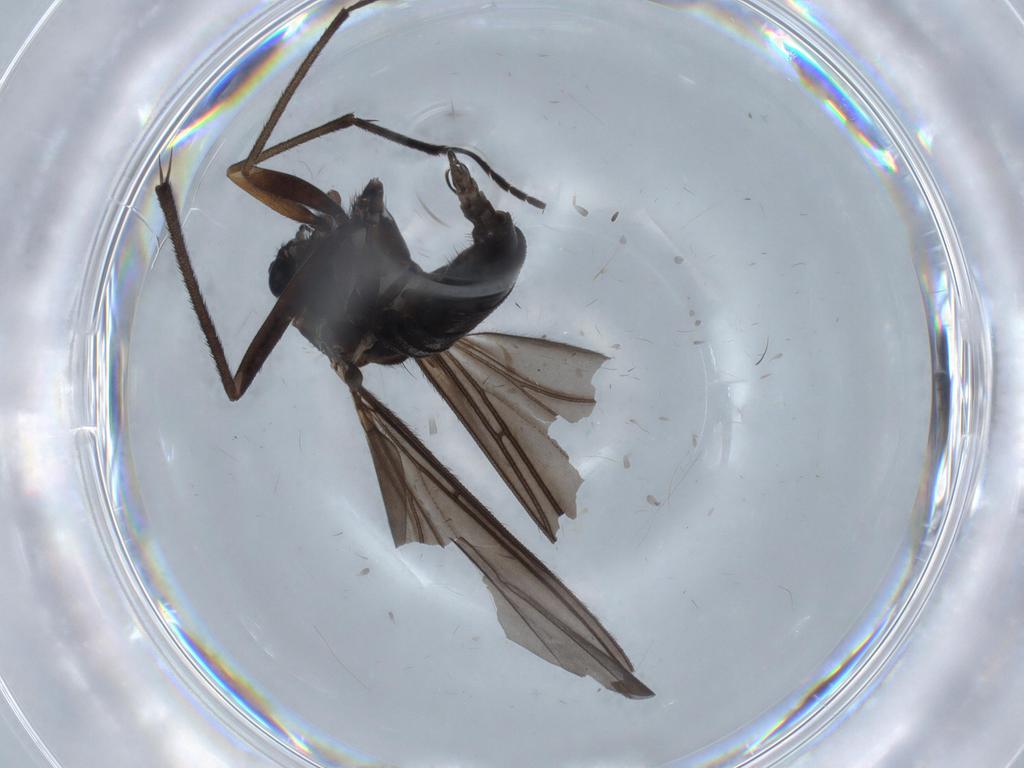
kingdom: Animalia
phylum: Arthropoda
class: Insecta
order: Diptera
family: Sciaridae
